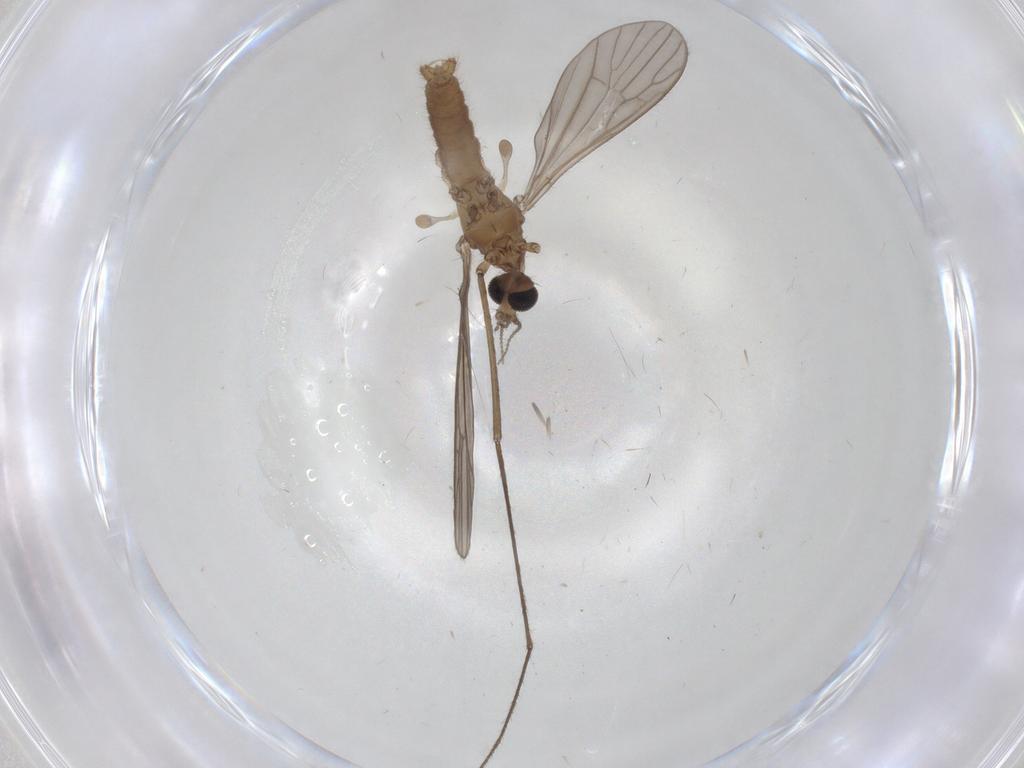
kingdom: Animalia
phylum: Arthropoda
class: Insecta
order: Diptera
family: Limoniidae
